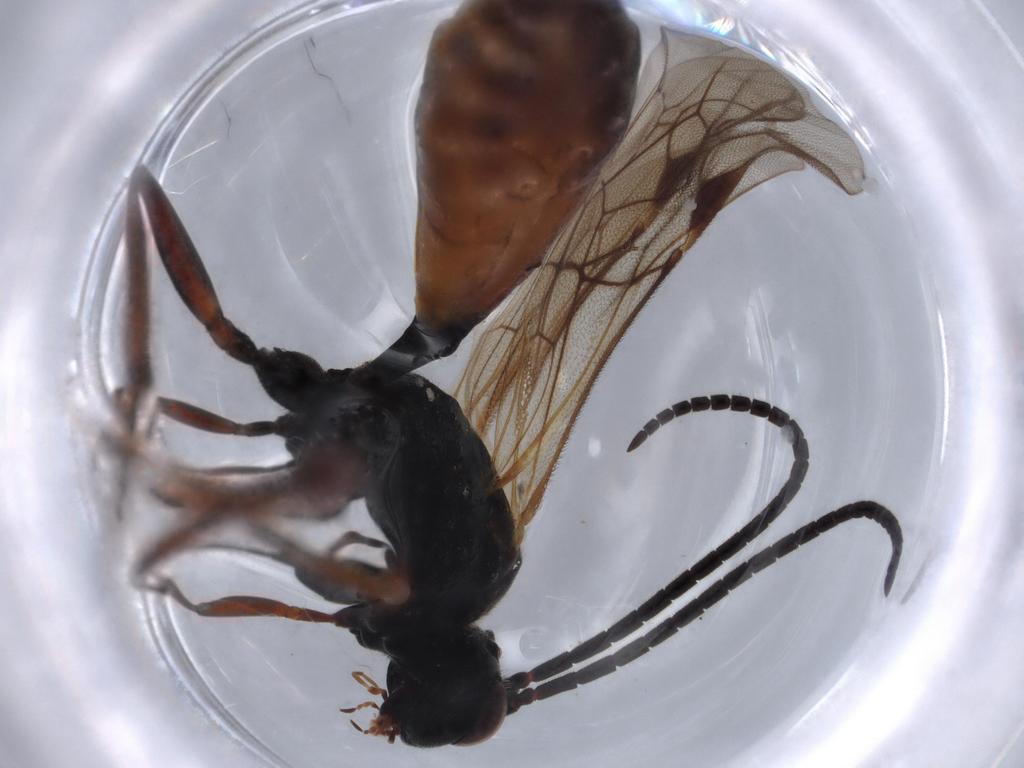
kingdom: Animalia
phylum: Arthropoda
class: Insecta
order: Hymenoptera
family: Ichneumonidae
